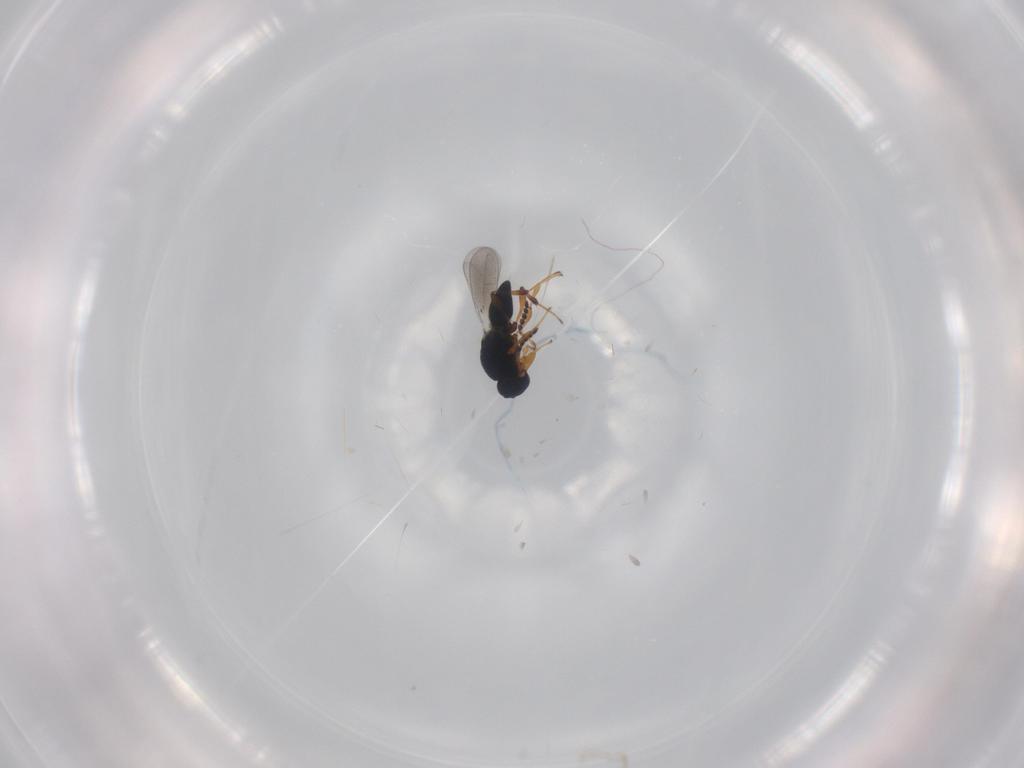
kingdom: Animalia
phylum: Arthropoda
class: Insecta
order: Hymenoptera
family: Platygastridae
